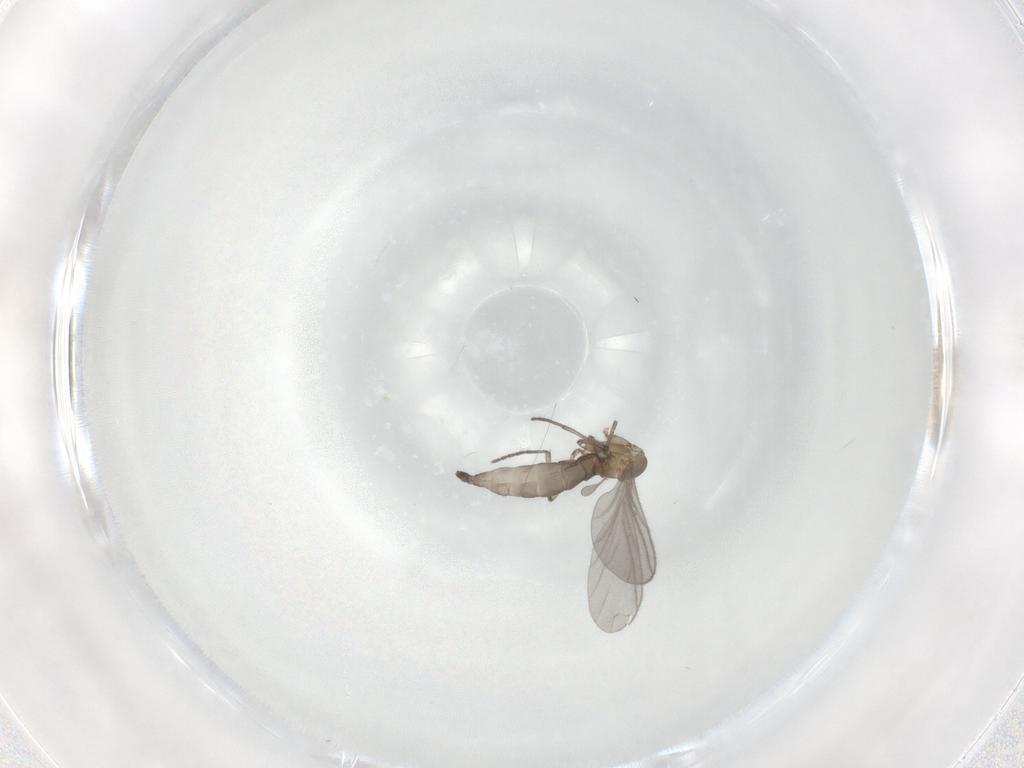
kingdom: Animalia
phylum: Arthropoda
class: Insecta
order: Diptera
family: Sciaridae
